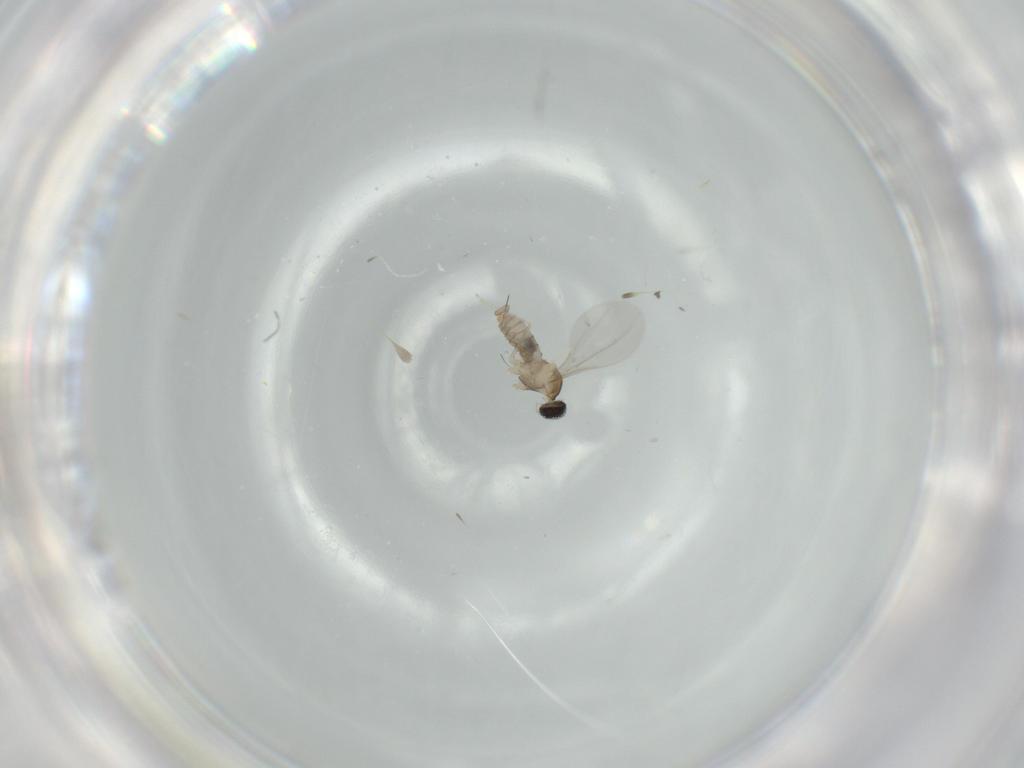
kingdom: Animalia
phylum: Arthropoda
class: Insecta
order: Diptera
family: Cecidomyiidae
